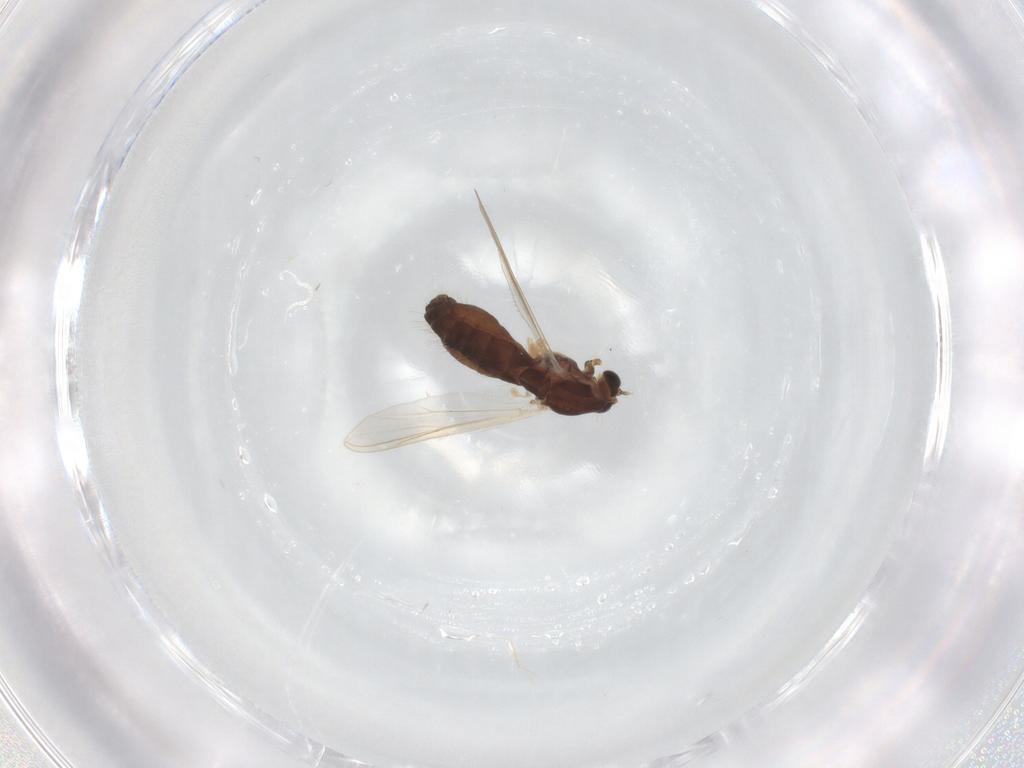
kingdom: Animalia
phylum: Arthropoda
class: Insecta
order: Diptera
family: Chironomidae
